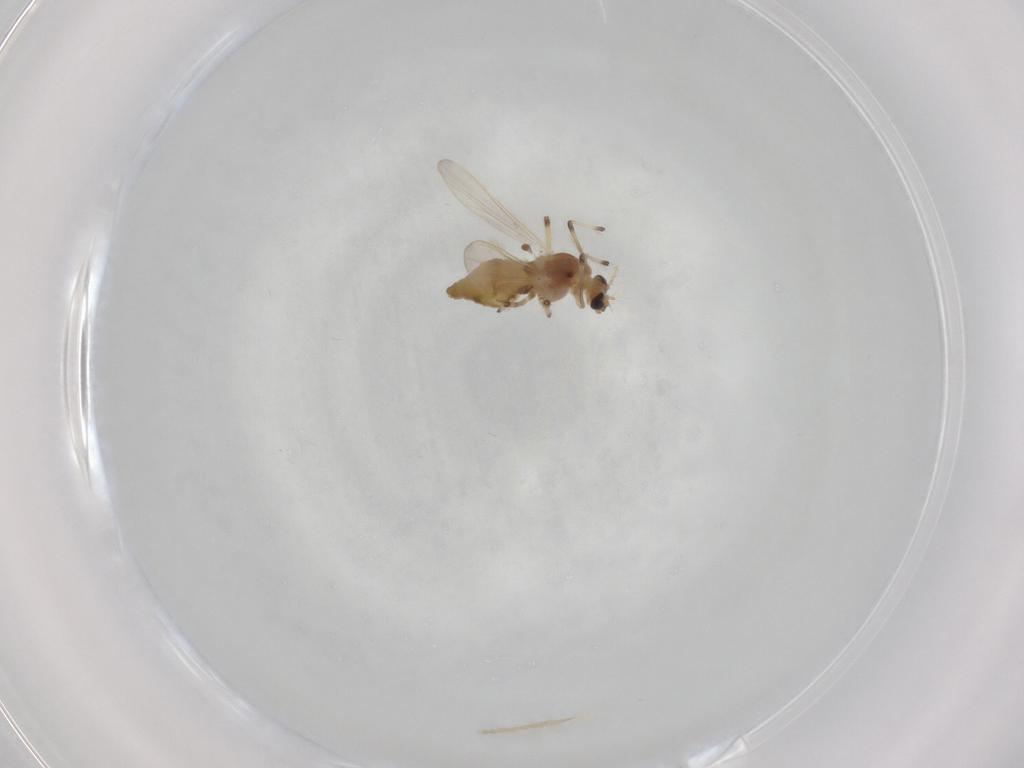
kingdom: Animalia
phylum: Arthropoda
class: Insecta
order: Diptera
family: Chironomidae
